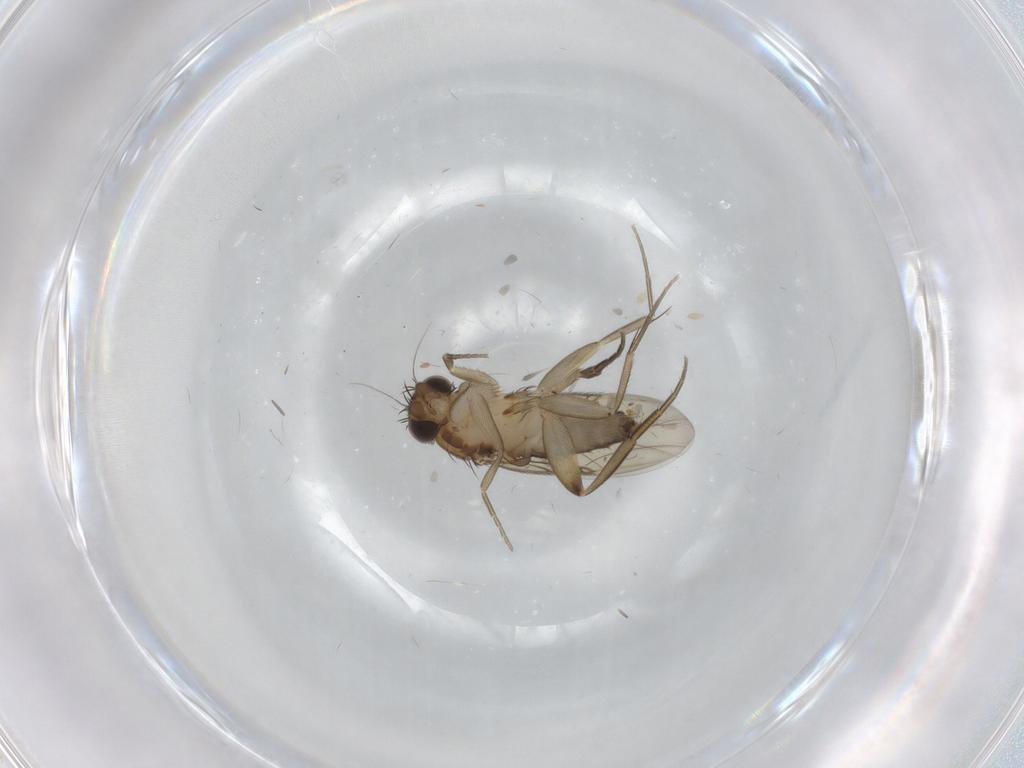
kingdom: Animalia
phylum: Arthropoda
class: Insecta
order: Diptera
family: Phoridae
